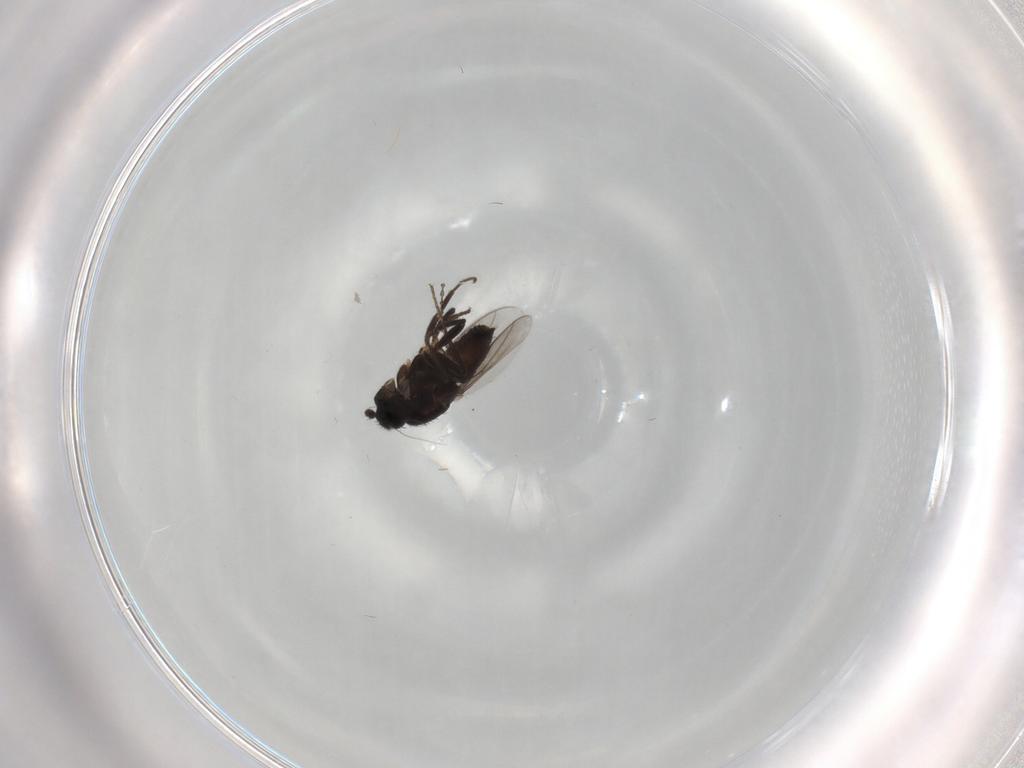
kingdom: Animalia
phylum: Arthropoda
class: Insecta
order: Diptera
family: Cecidomyiidae
